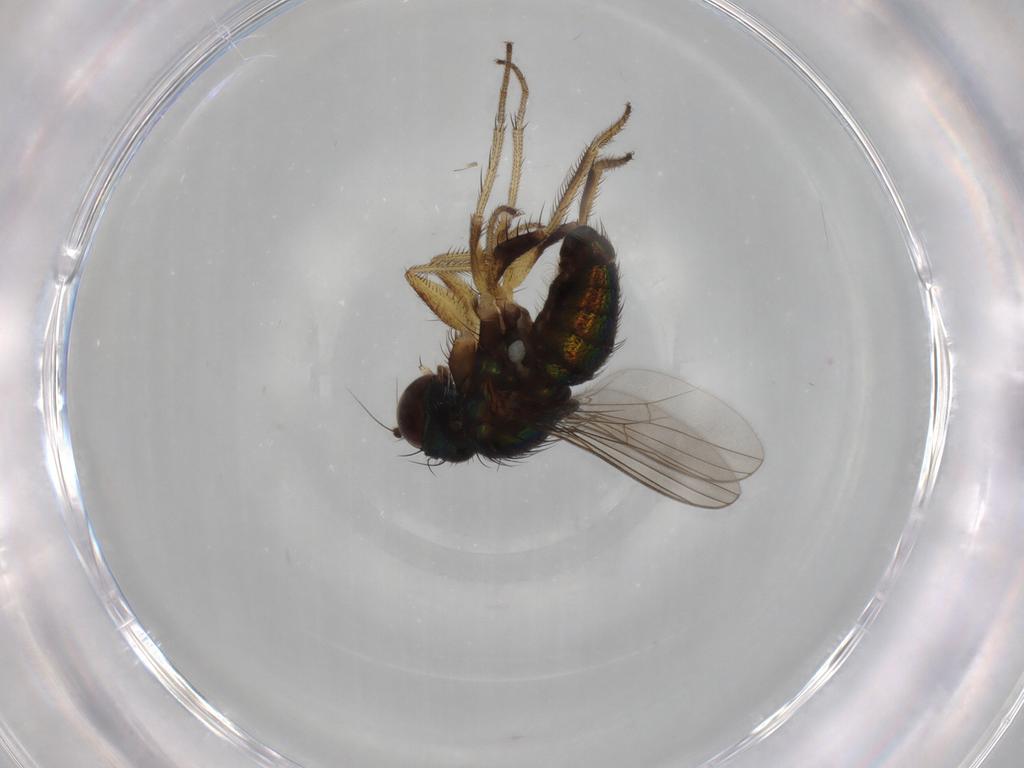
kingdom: Animalia
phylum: Arthropoda
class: Insecta
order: Diptera
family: Dolichopodidae
